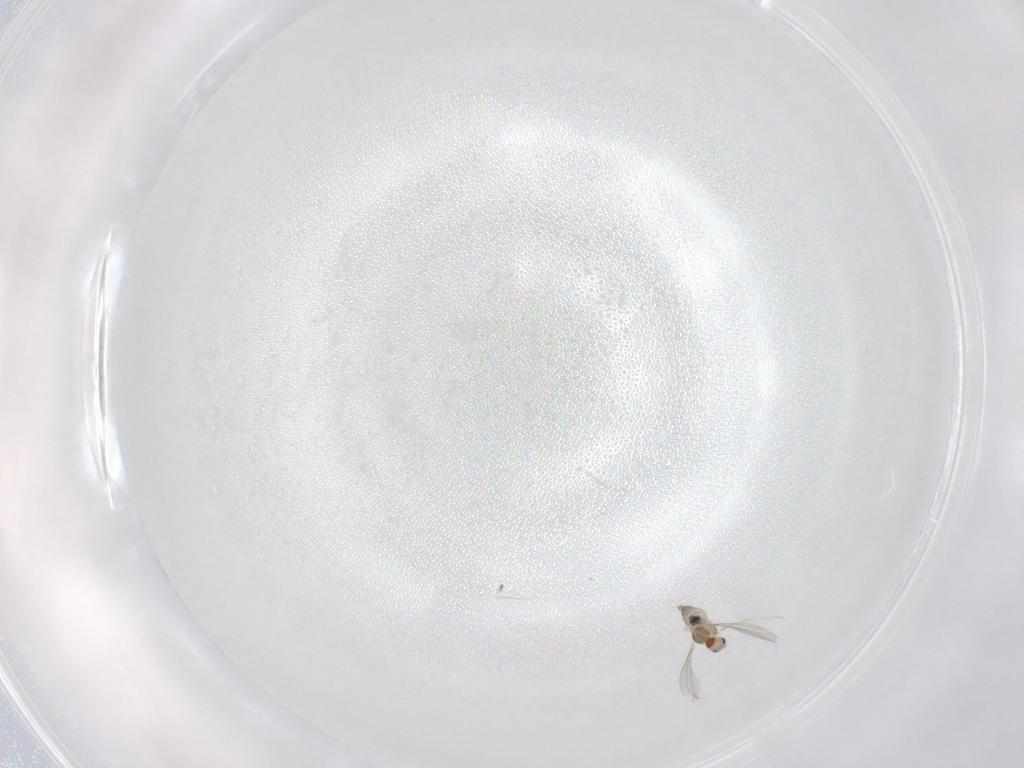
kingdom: Animalia
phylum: Arthropoda
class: Insecta
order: Diptera
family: Cecidomyiidae
